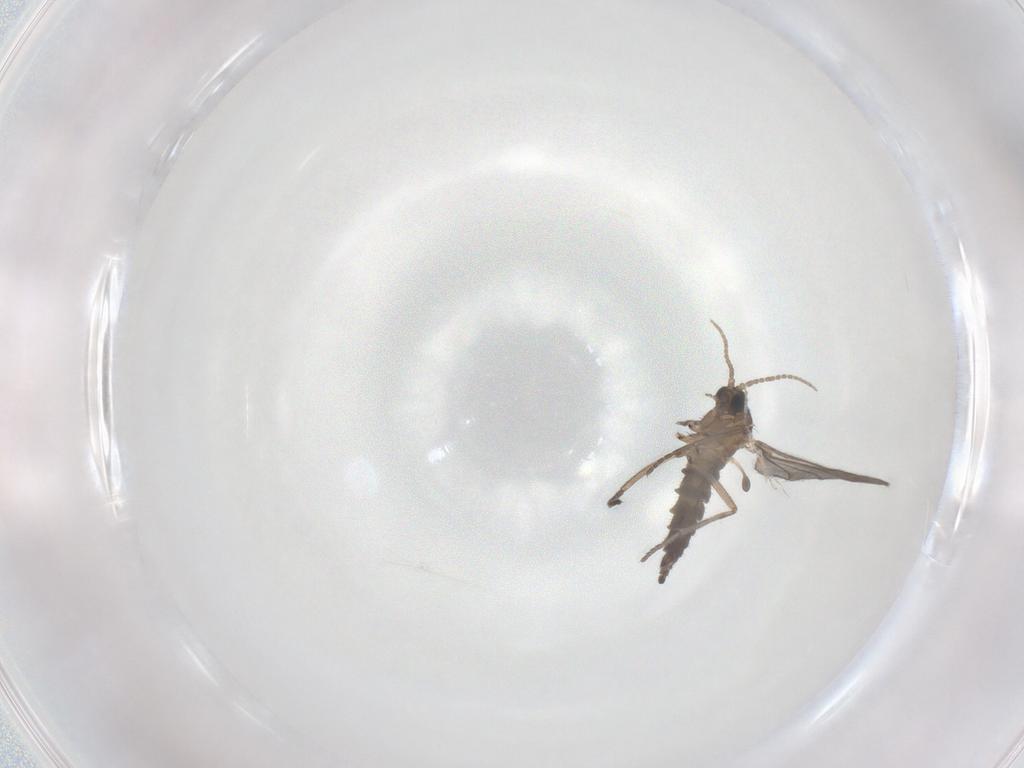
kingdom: Animalia
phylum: Arthropoda
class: Insecta
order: Diptera
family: Sciaridae
